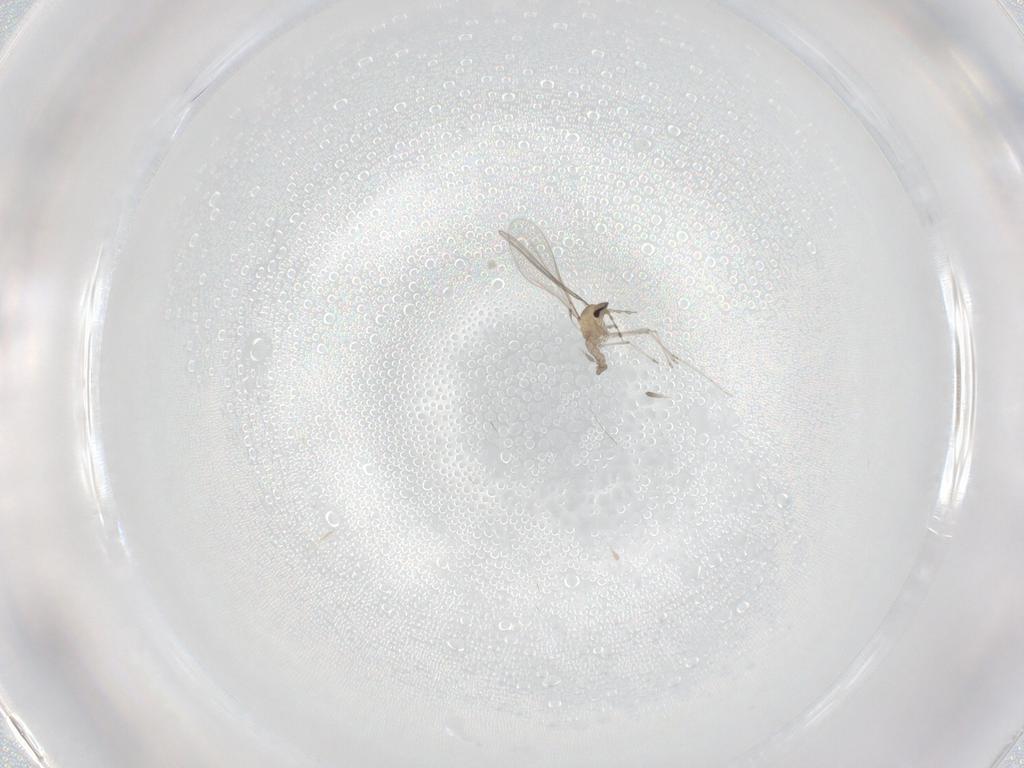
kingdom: Animalia
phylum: Arthropoda
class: Insecta
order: Diptera
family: Cecidomyiidae
